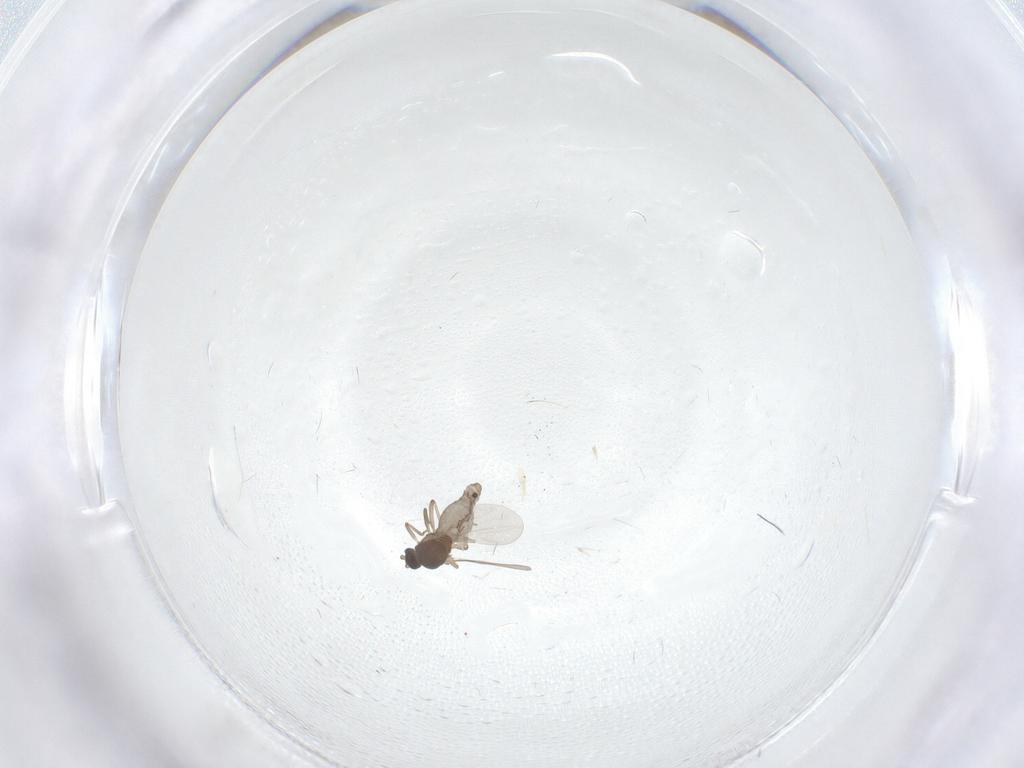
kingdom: Animalia
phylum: Arthropoda
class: Insecta
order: Diptera
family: Ceratopogonidae
